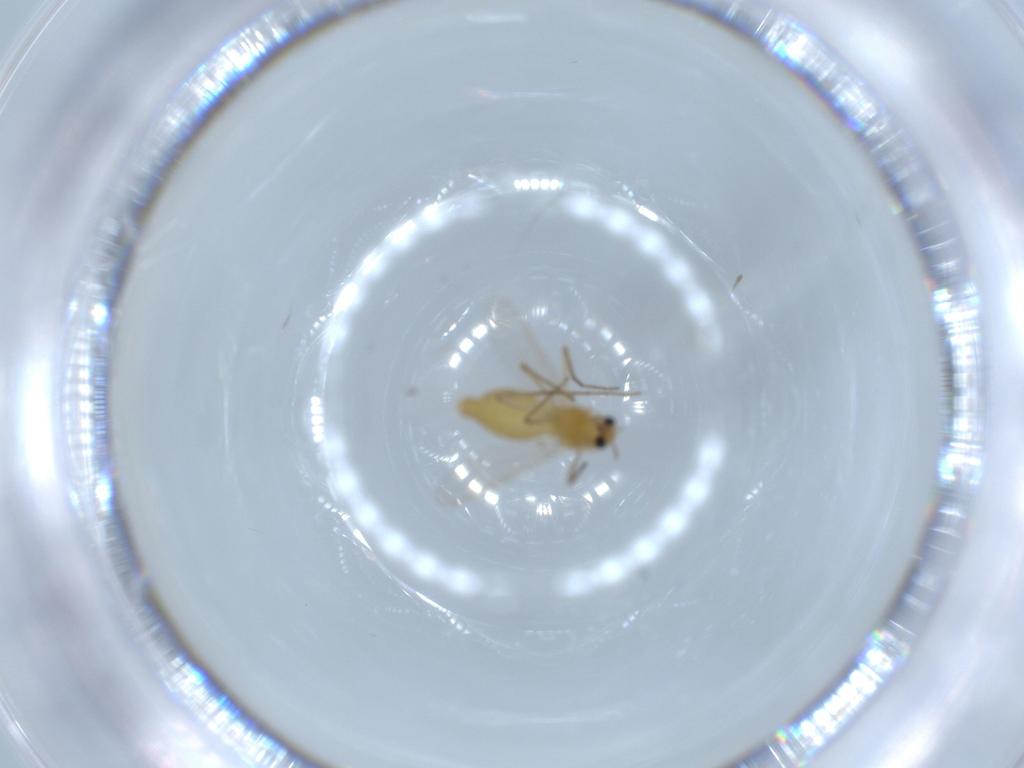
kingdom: Animalia
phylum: Arthropoda
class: Insecta
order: Diptera
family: Chironomidae
